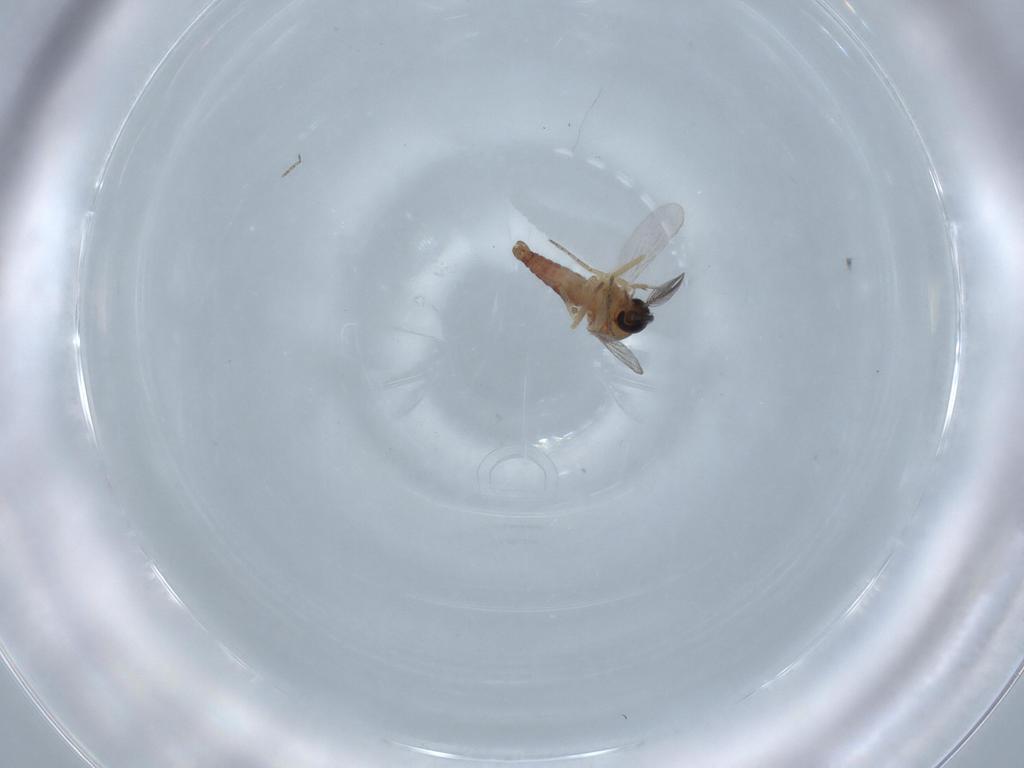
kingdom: Animalia
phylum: Arthropoda
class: Insecta
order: Diptera
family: Ceratopogonidae
